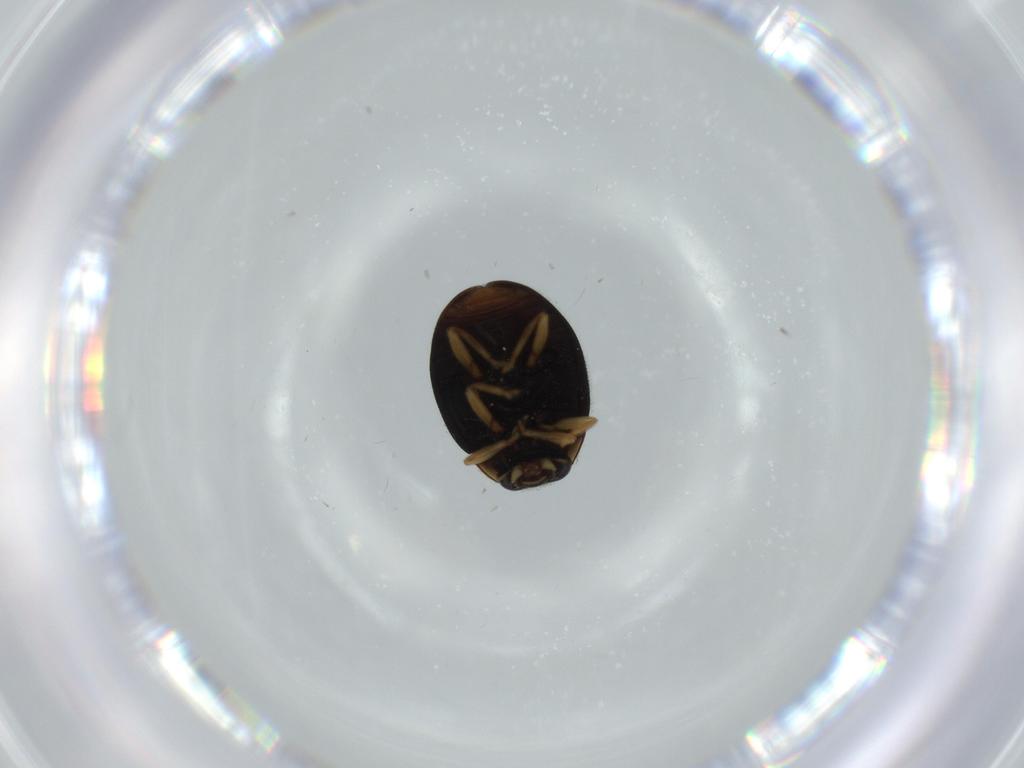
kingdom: Animalia
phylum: Arthropoda
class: Insecta
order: Coleoptera
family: Coccinellidae
